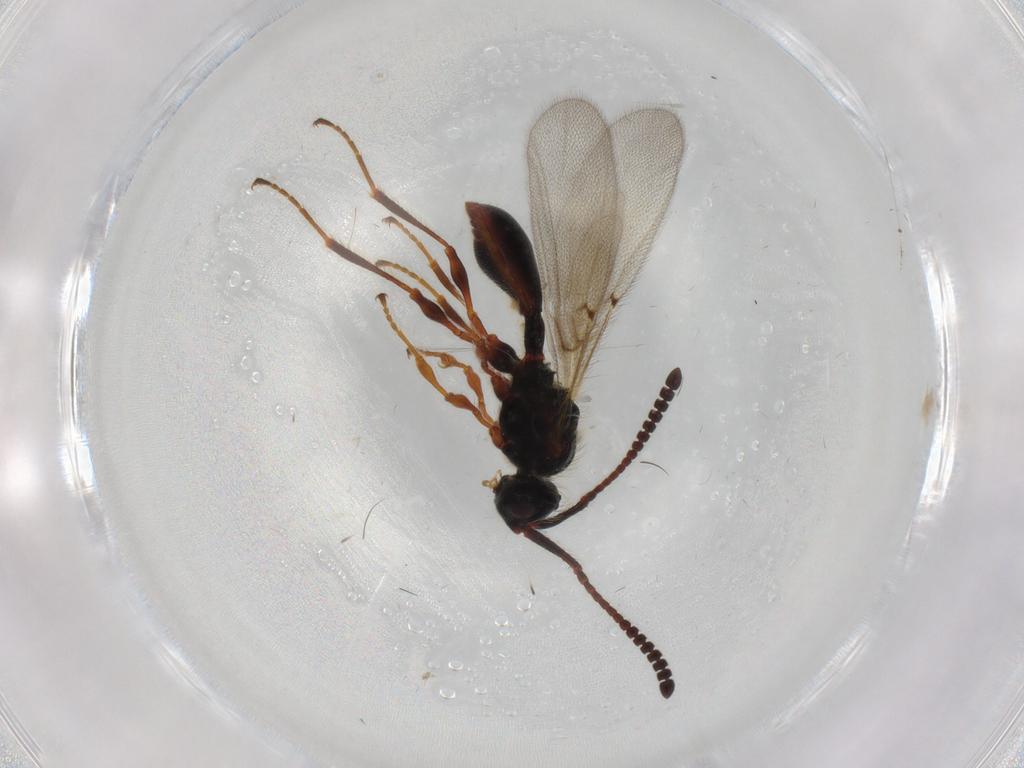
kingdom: Animalia
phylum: Arthropoda
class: Insecta
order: Hymenoptera
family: Diapriidae
